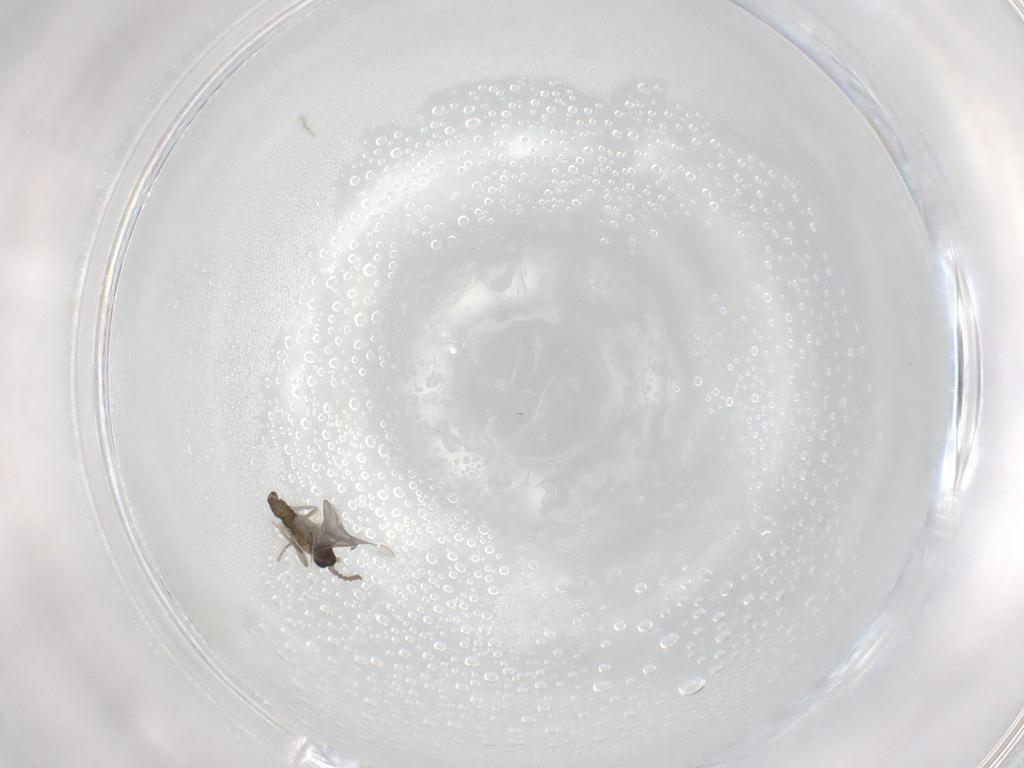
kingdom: Animalia
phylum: Arthropoda
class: Insecta
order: Diptera
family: Cecidomyiidae
